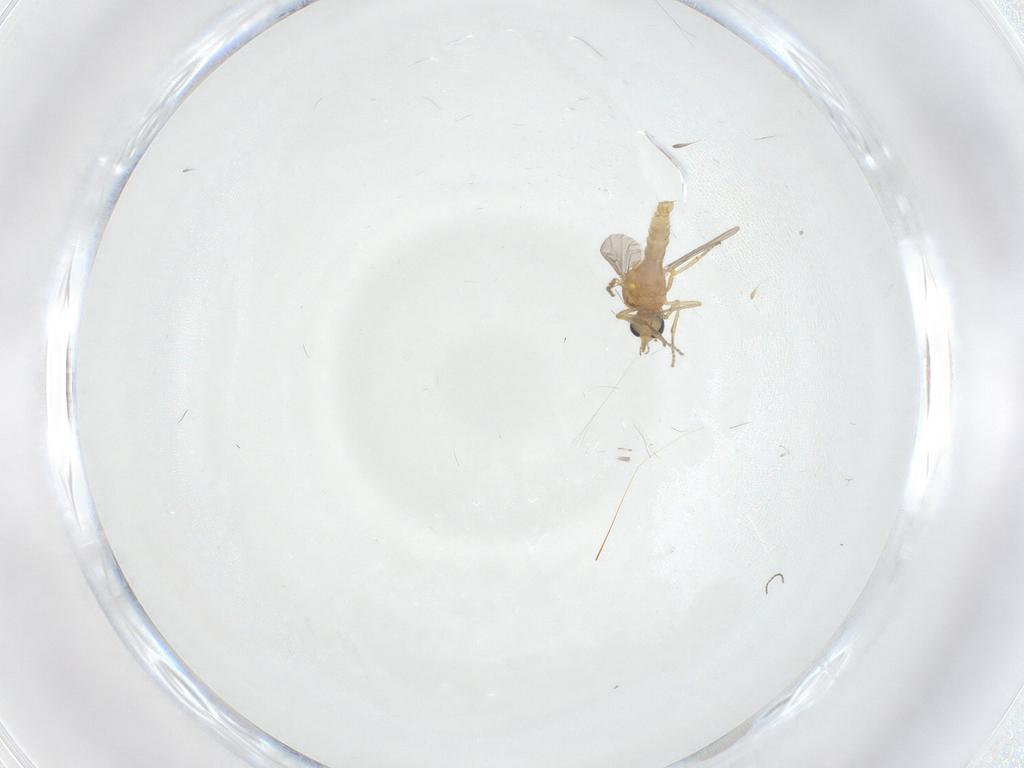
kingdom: Animalia
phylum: Arthropoda
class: Insecta
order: Diptera
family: Ceratopogonidae
